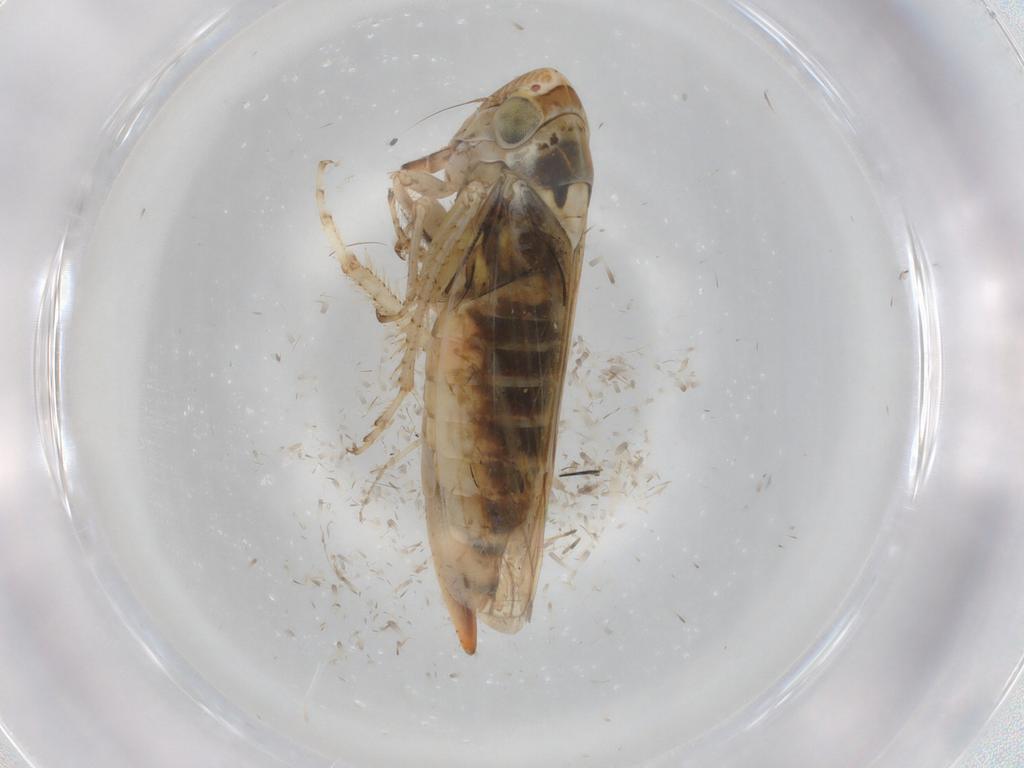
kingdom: Animalia
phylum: Arthropoda
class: Insecta
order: Hemiptera
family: Cicadellidae
